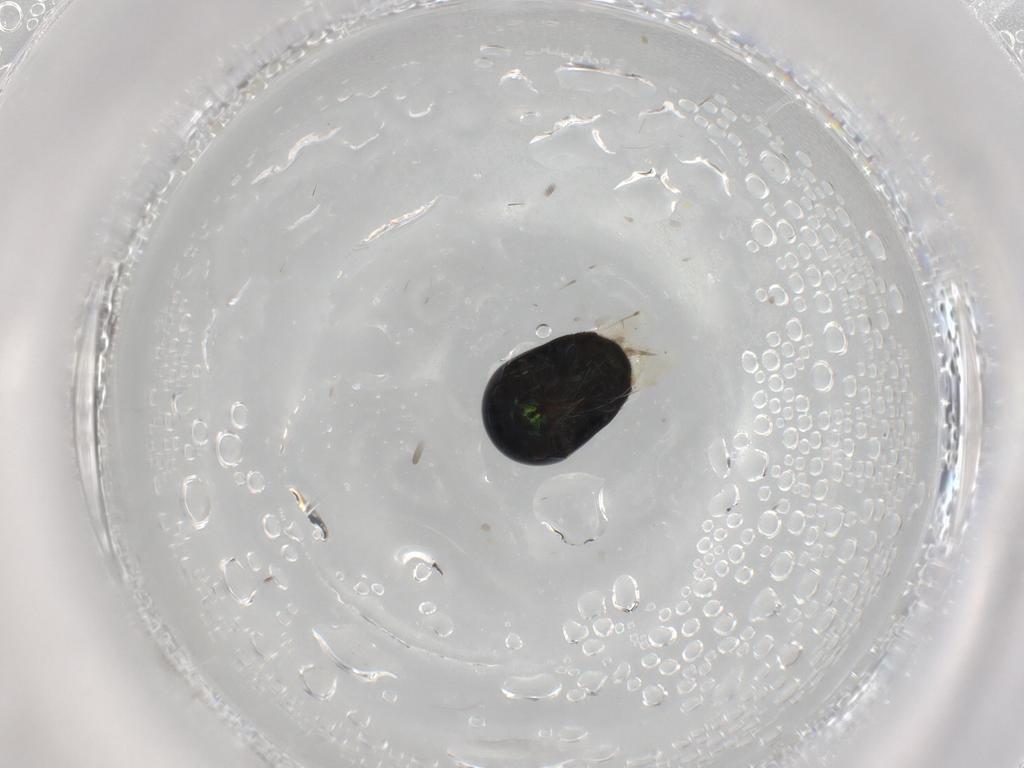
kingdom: Animalia
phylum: Arthropoda
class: Insecta
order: Coleoptera
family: Cybocephalidae
